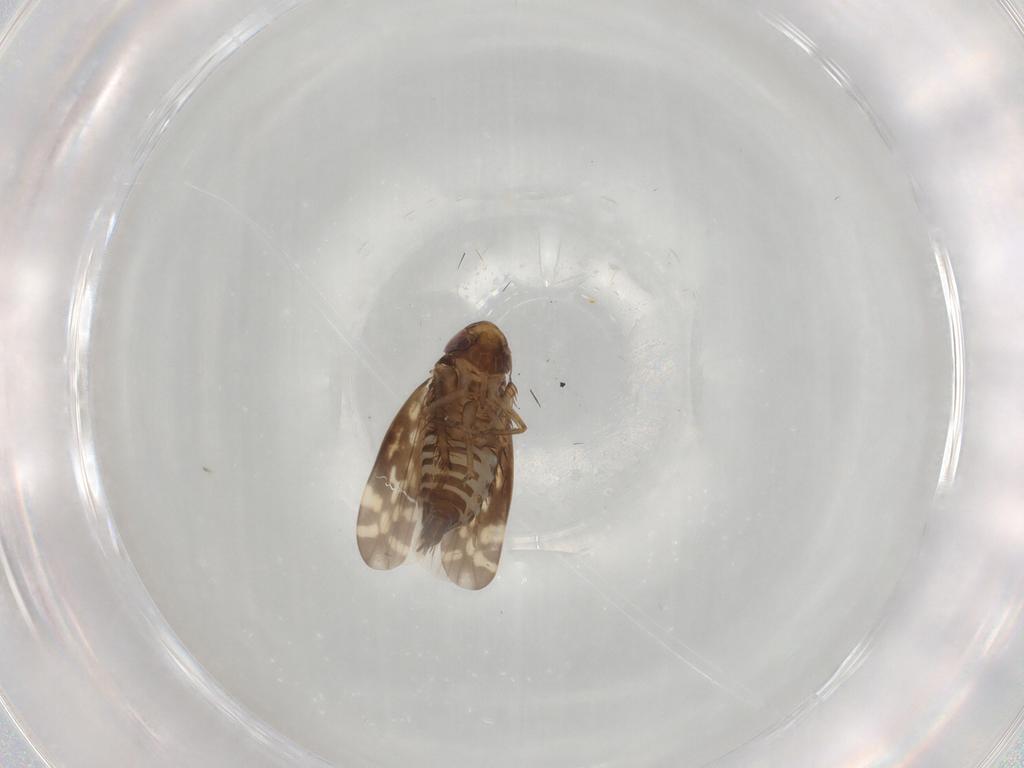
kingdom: Animalia
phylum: Arthropoda
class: Insecta
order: Hemiptera
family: Cicadellidae
